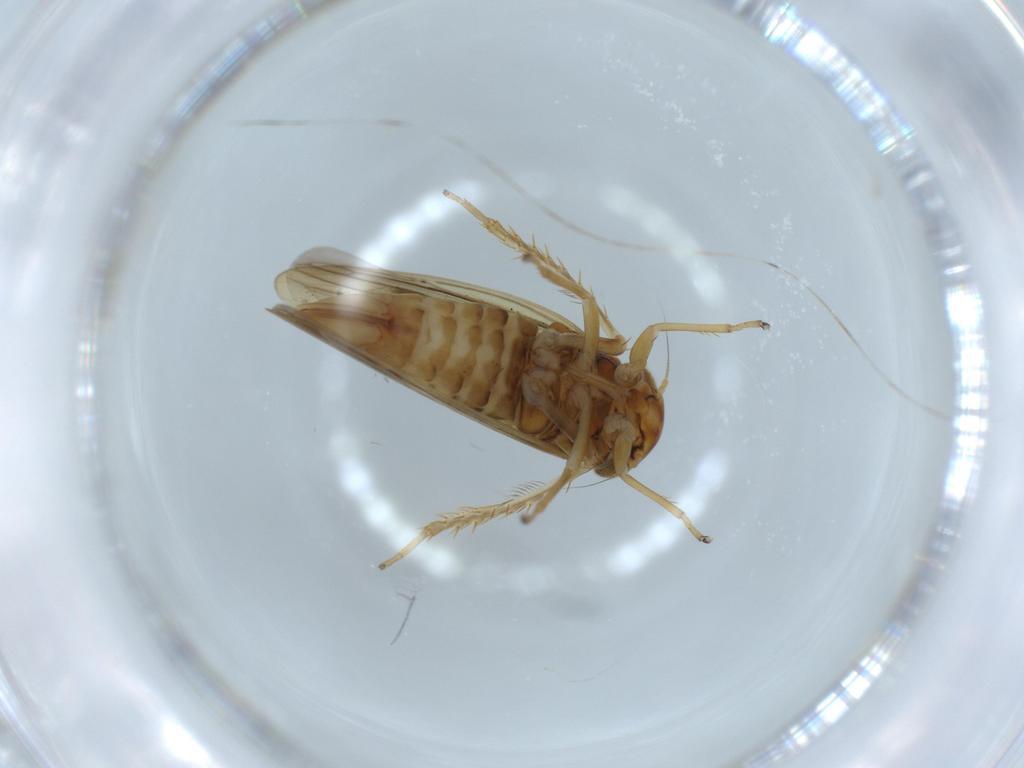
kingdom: Animalia
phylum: Arthropoda
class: Insecta
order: Hemiptera
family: Cicadellidae
